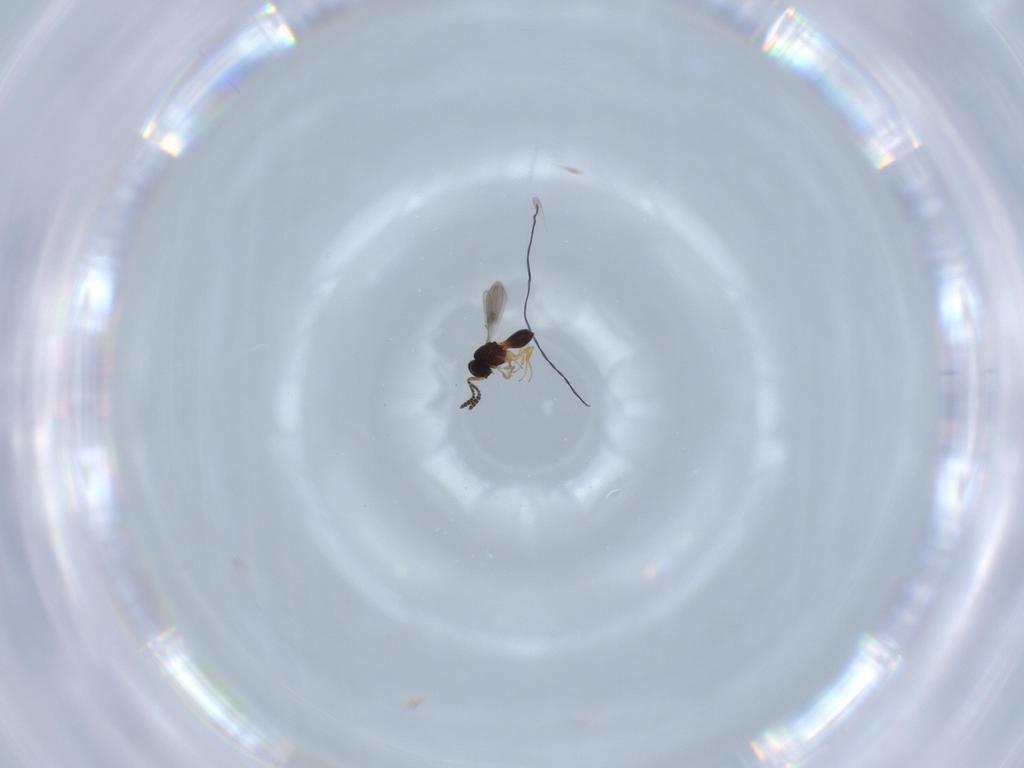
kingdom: Animalia
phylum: Arthropoda
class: Insecta
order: Hymenoptera
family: Scelionidae
